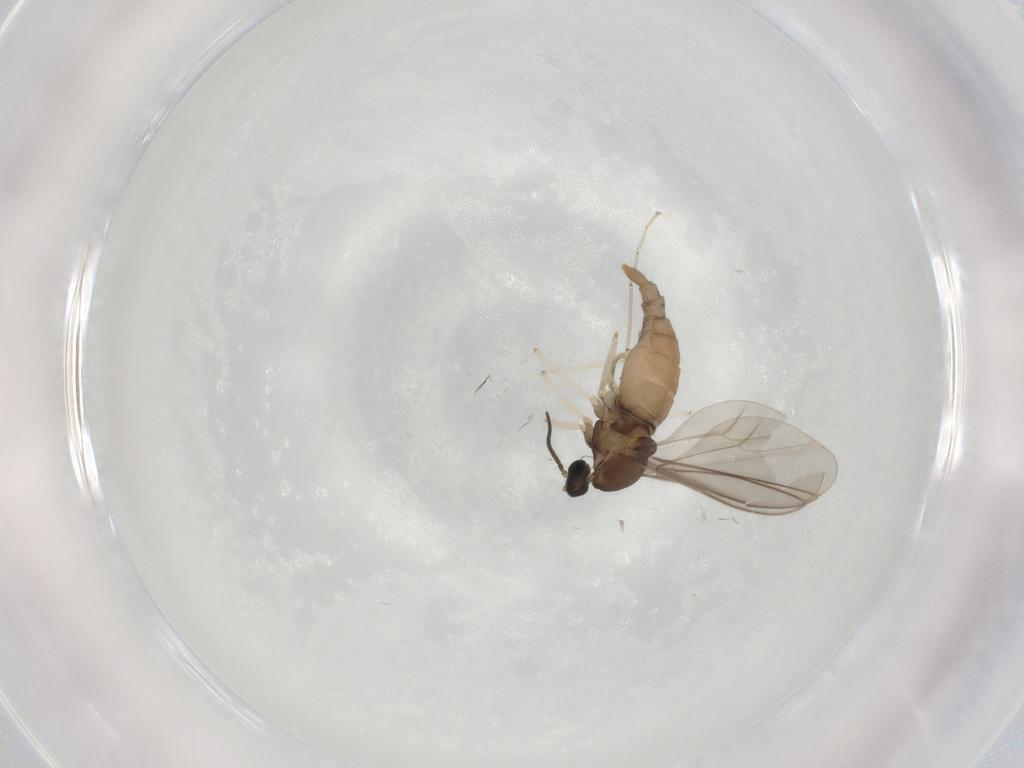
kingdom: Animalia
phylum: Arthropoda
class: Insecta
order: Diptera
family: Cecidomyiidae
